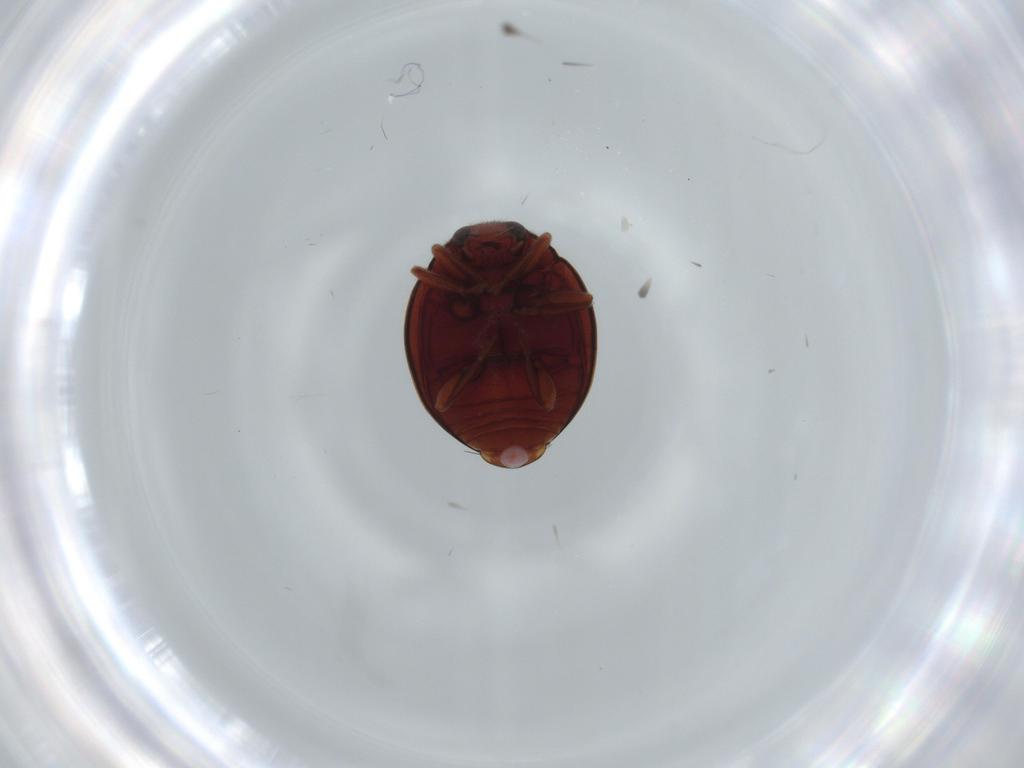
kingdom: Animalia
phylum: Arthropoda
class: Insecta
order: Coleoptera
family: Coccinellidae
